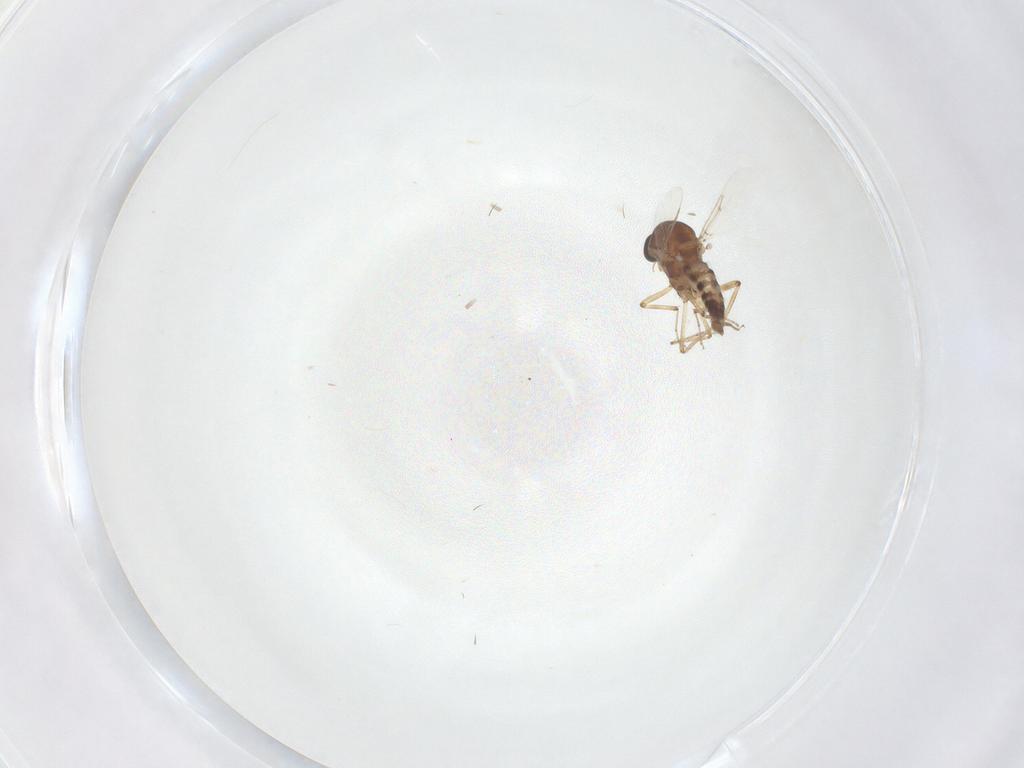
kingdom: Animalia
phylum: Arthropoda
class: Insecta
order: Diptera
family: Ceratopogonidae
